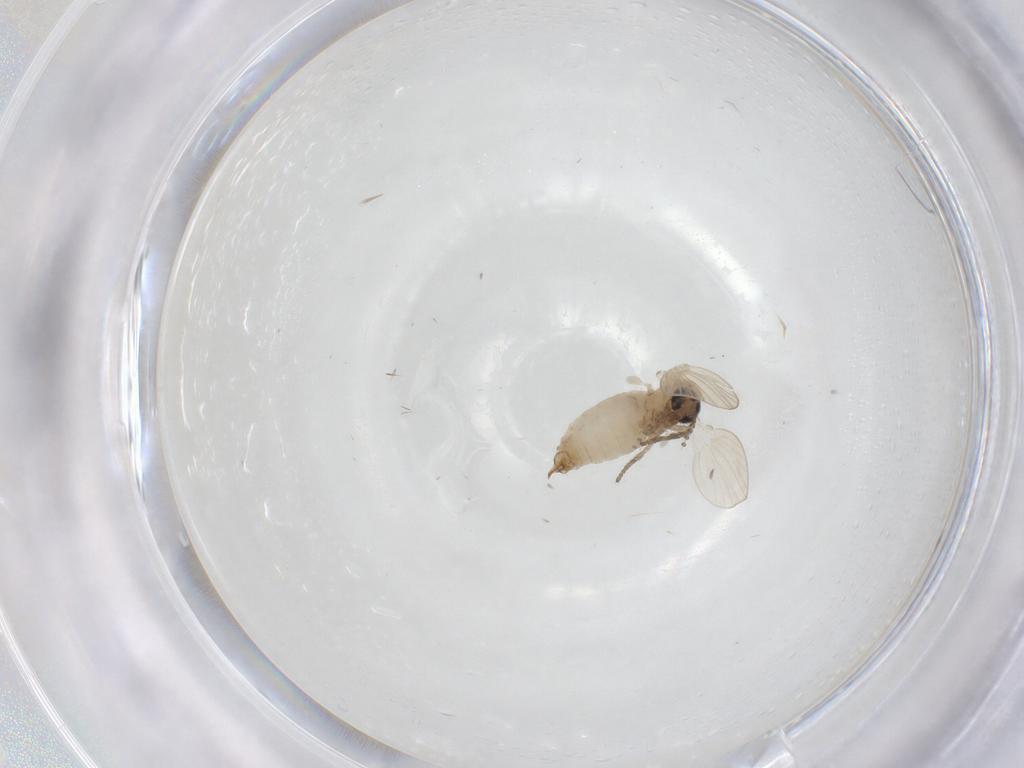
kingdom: Animalia
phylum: Arthropoda
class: Insecta
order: Diptera
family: Psychodidae
